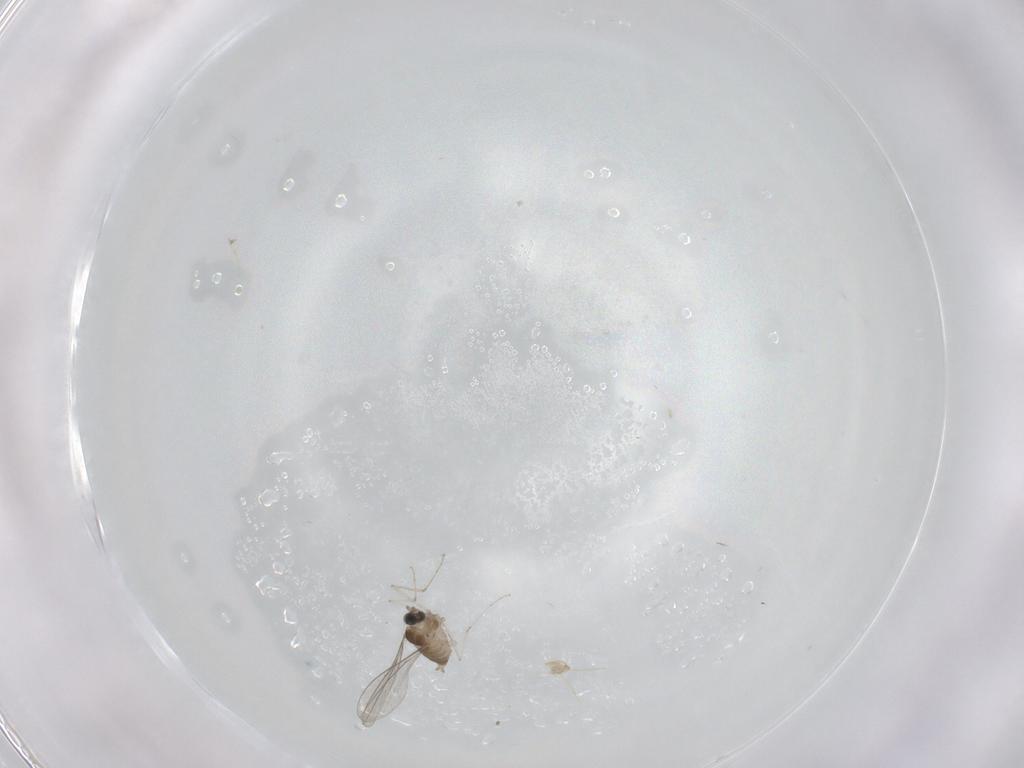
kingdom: Animalia
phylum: Arthropoda
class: Insecta
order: Diptera
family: Cecidomyiidae
